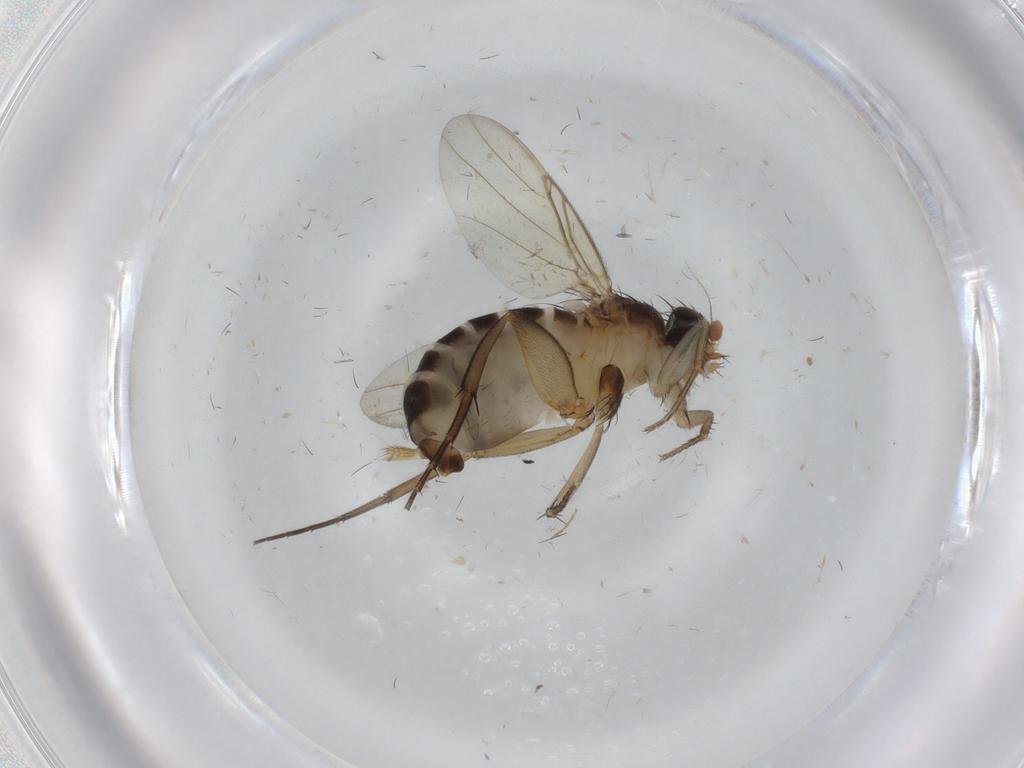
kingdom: Animalia
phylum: Arthropoda
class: Insecta
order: Diptera
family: Phoridae
